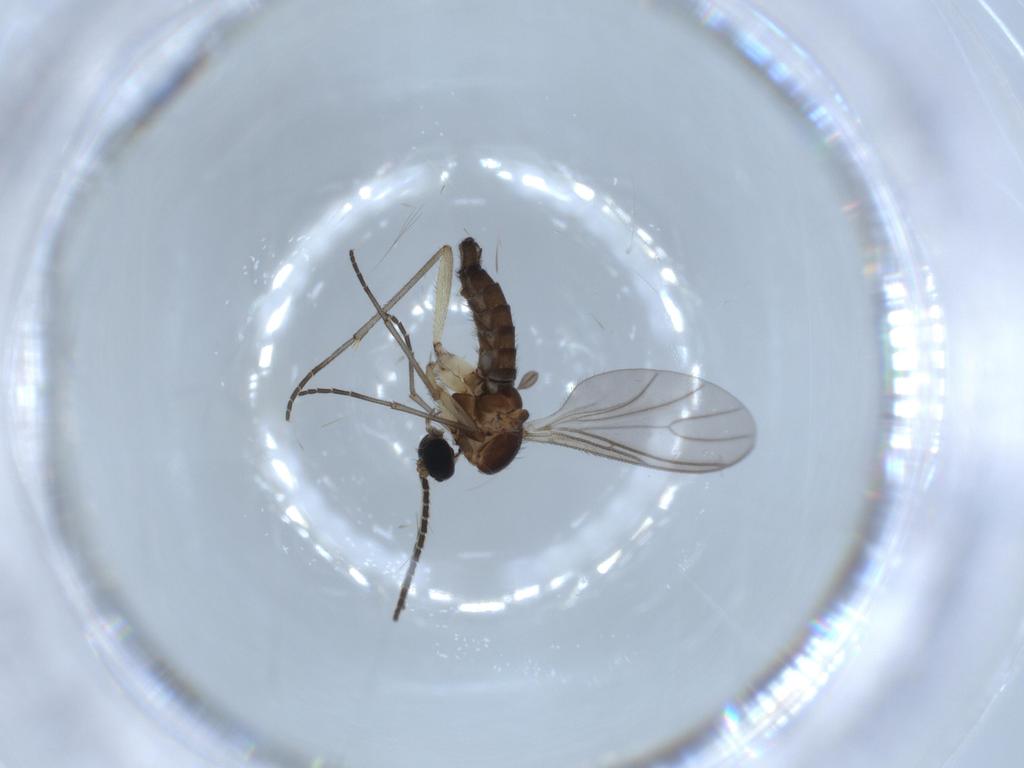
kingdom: Animalia
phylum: Arthropoda
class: Insecta
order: Diptera
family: Sciaridae
